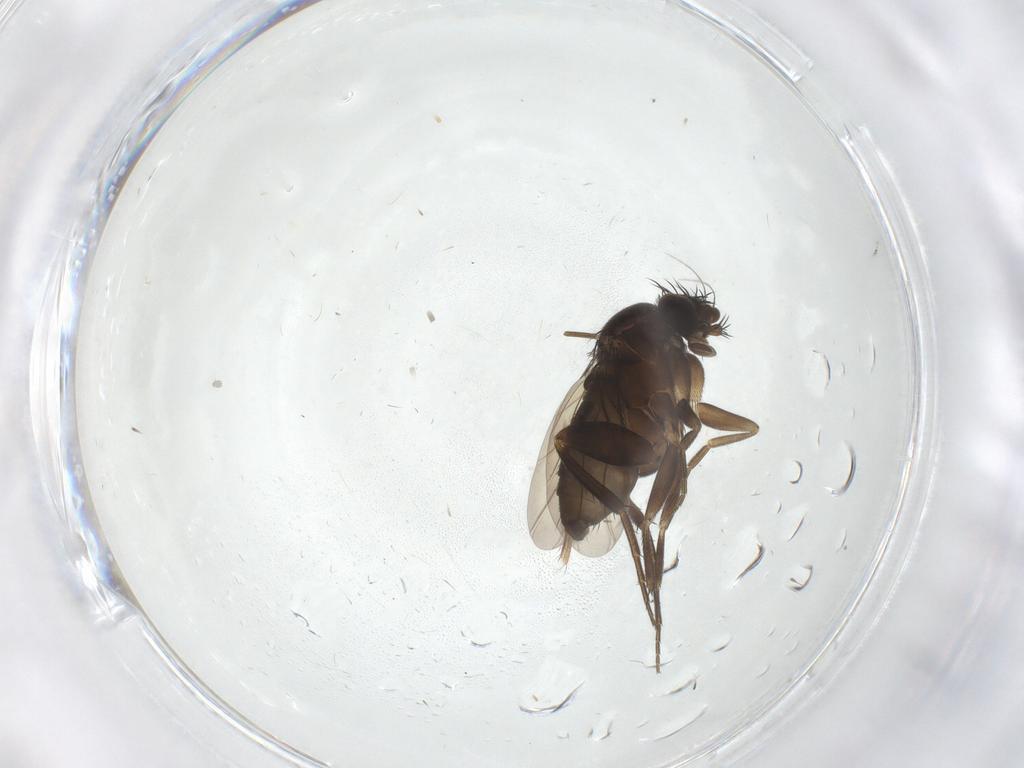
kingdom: Animalia
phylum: Arthropoda
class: Insecta
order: Diptera
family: Phoridae
